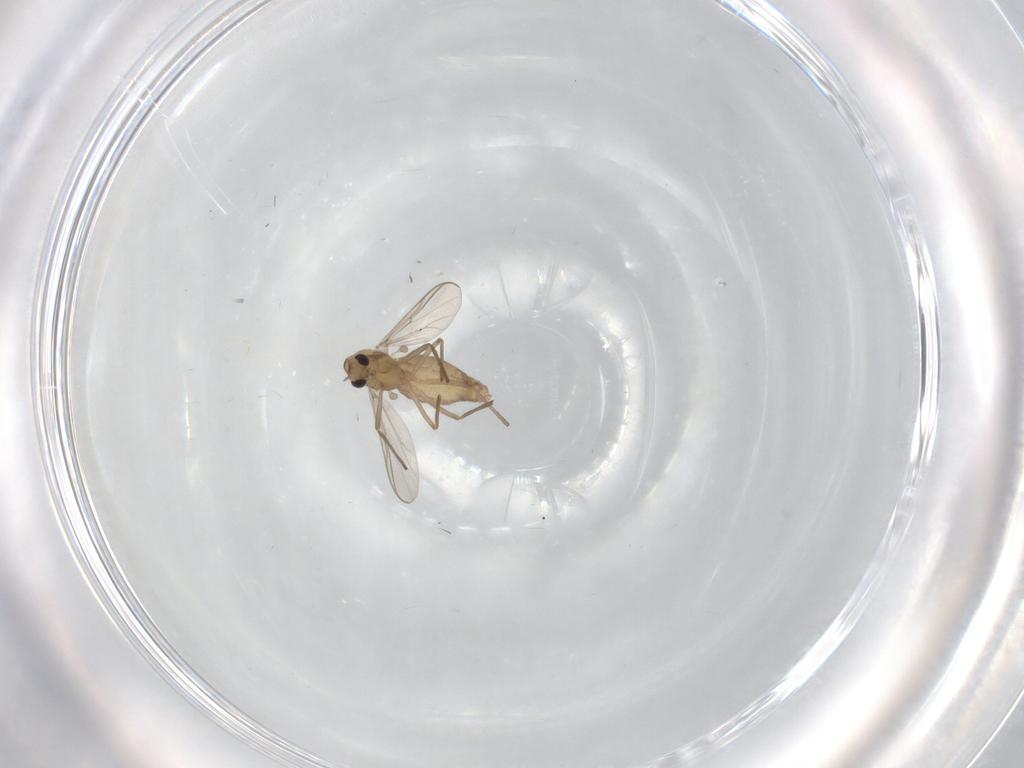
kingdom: Animalia
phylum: Arthropoda
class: Insecta
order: Diptera
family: Chironomidae
